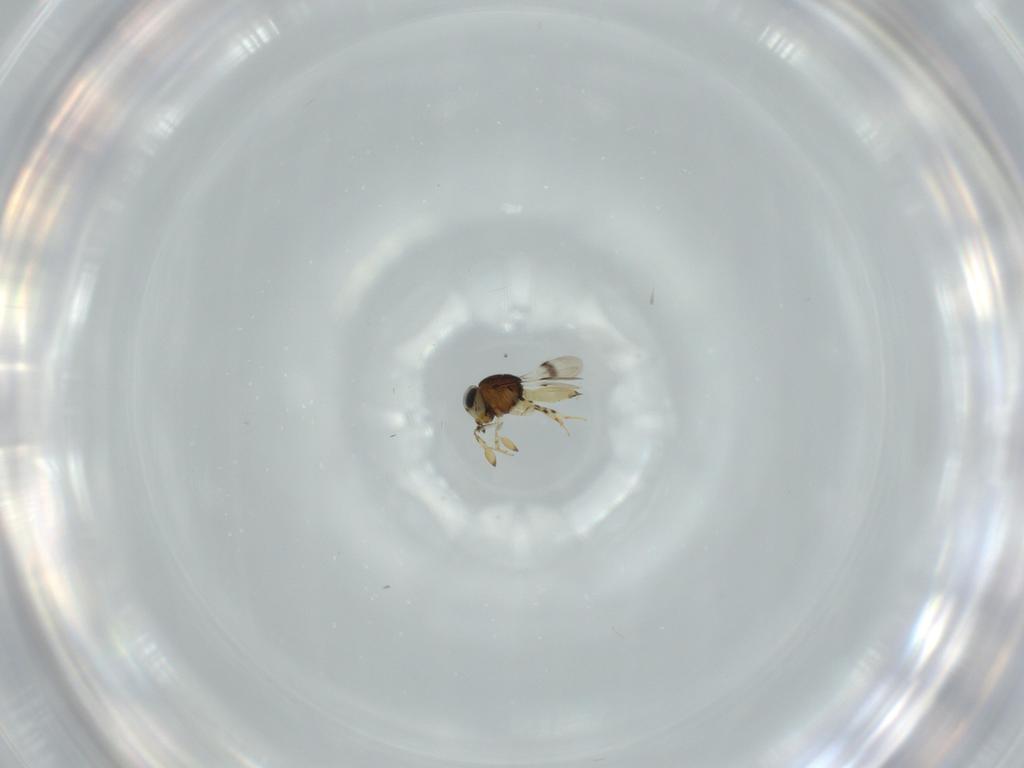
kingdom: Animalia
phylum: Arthropoda
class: Insecta
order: Hymenoptera
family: Scelionidae
